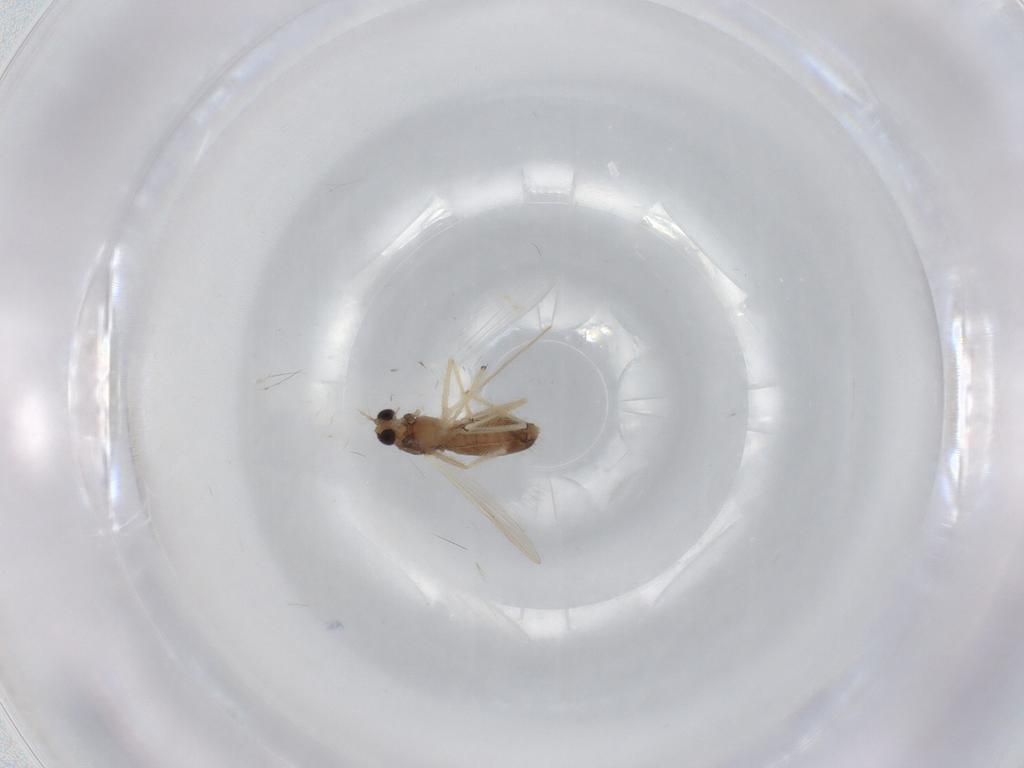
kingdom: Animalia
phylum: Arthropoda
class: Insecta
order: Diptera
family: Chironomidae
